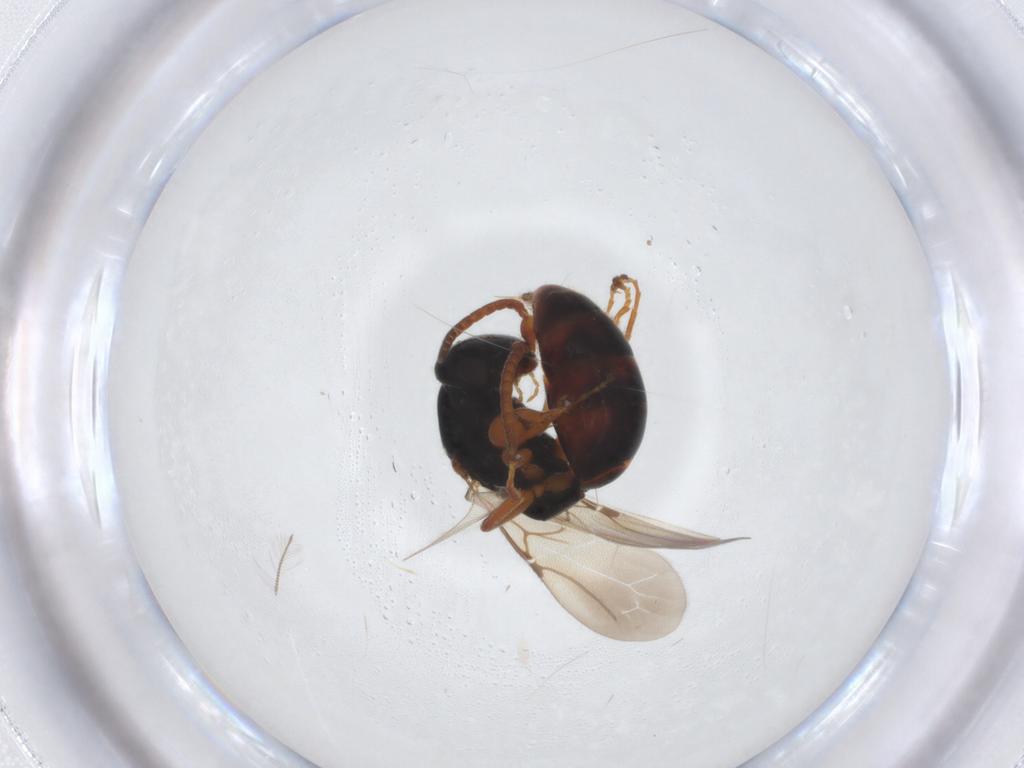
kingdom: Animalia
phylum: Arthropoda
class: Insecta
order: Hymenoptera
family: Bethylidae
